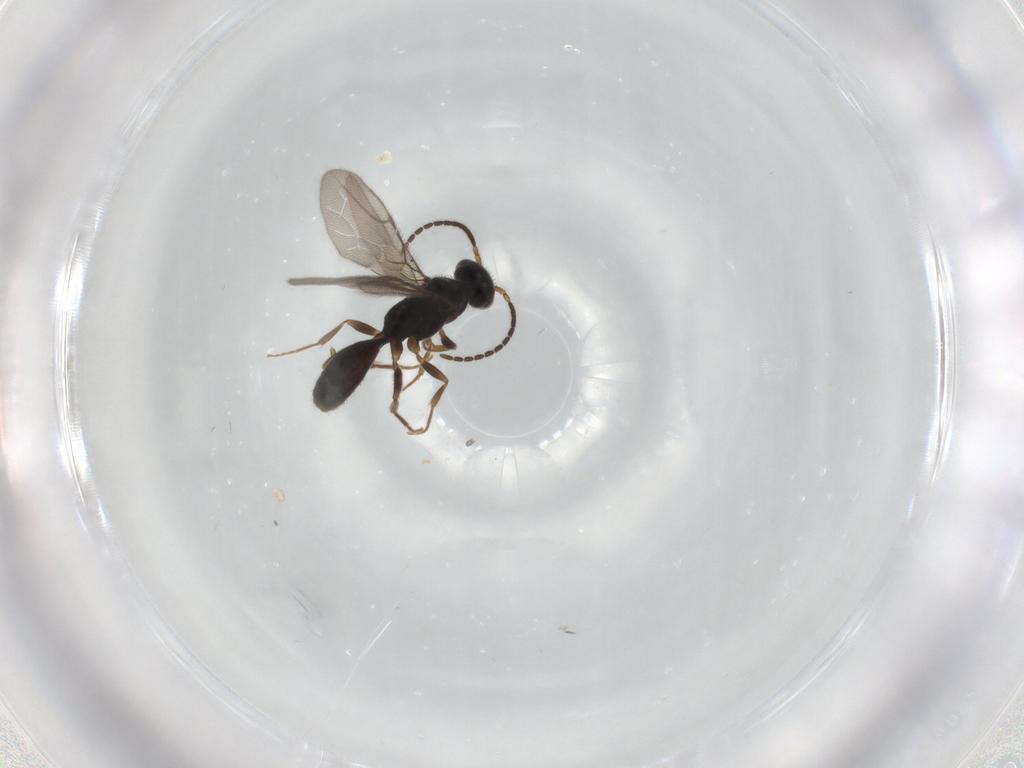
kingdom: Animalia
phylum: Arthropoda
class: Insecta
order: Hymenoptera
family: Bethylidae
